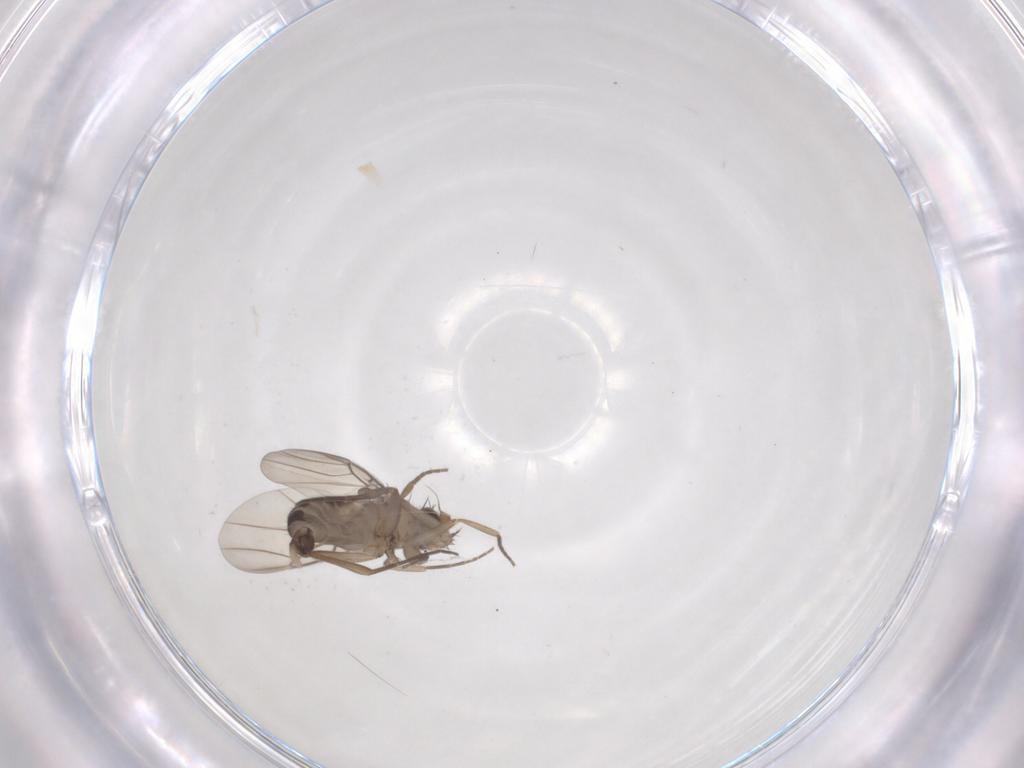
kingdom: Animalia
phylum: Arthropoda
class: Insecta
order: Diptera
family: Phoridae
